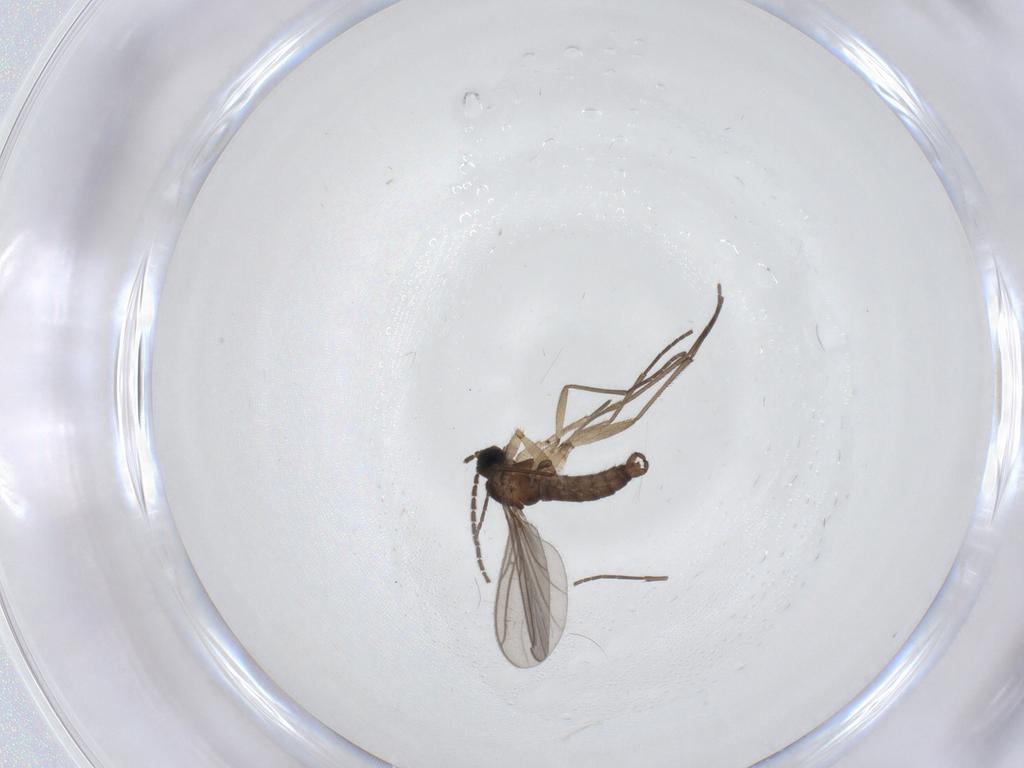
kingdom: Animalia
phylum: Arthropoda
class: Insecta
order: Diptera
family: Sciaridae
